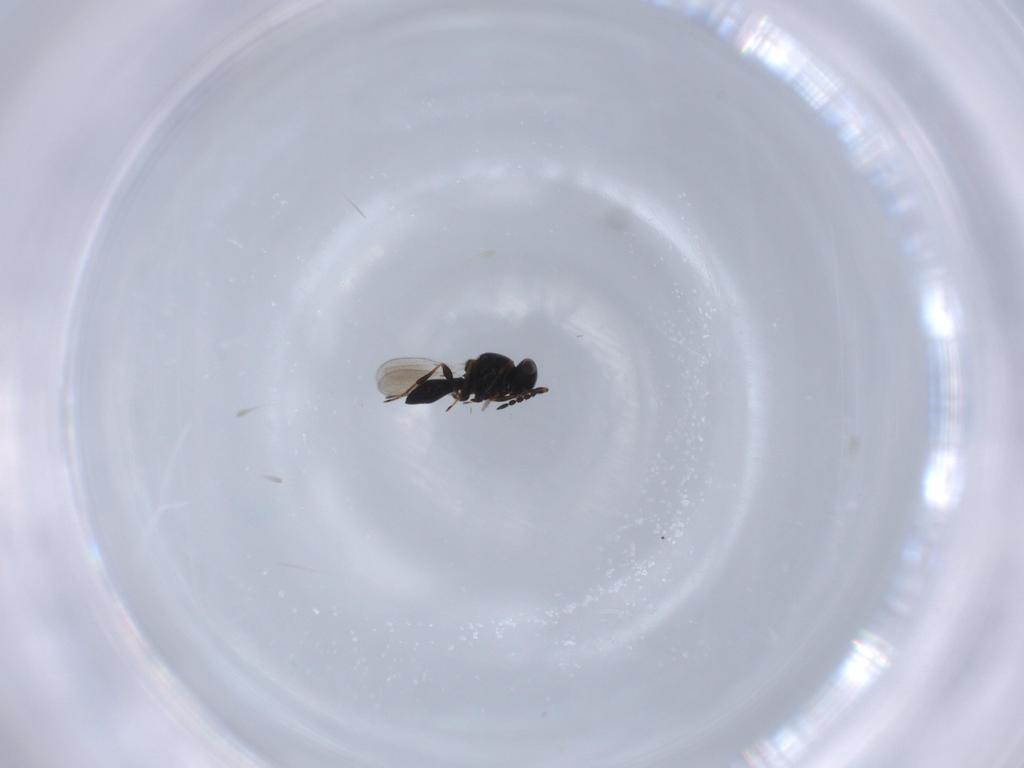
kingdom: Animalia
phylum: Arthropoda
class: Insecta
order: Hymenoptera
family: Platygastridae
